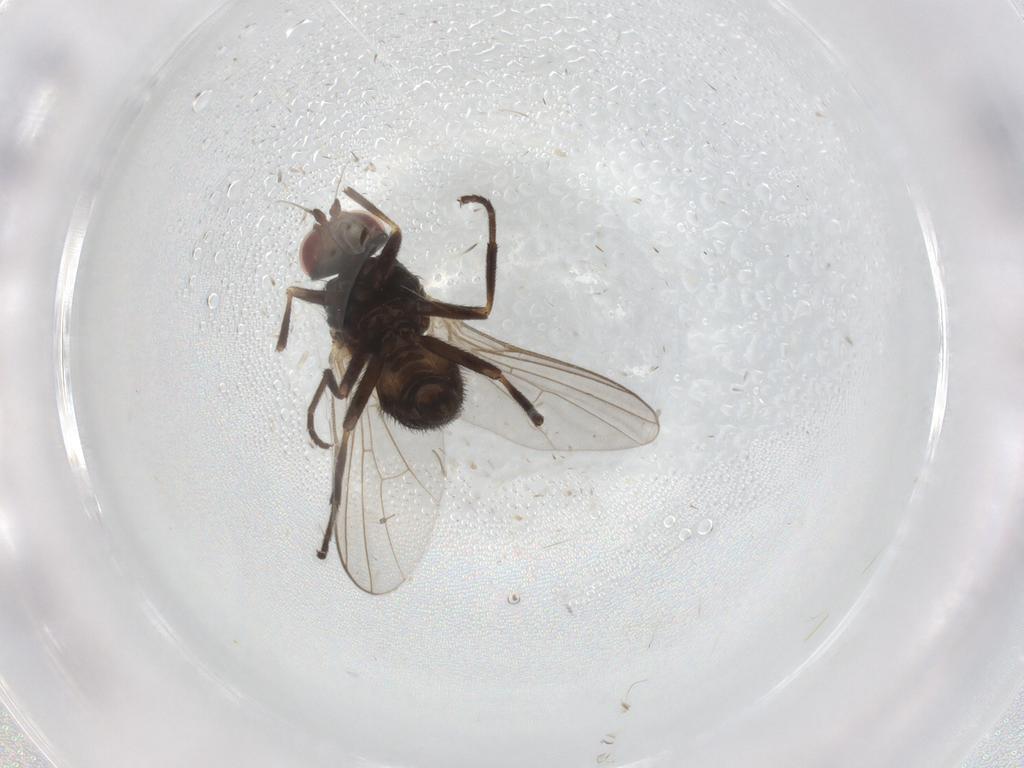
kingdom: Animalia
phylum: Arthropoda
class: Insecta
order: Diptera
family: Cecidomyiidae
